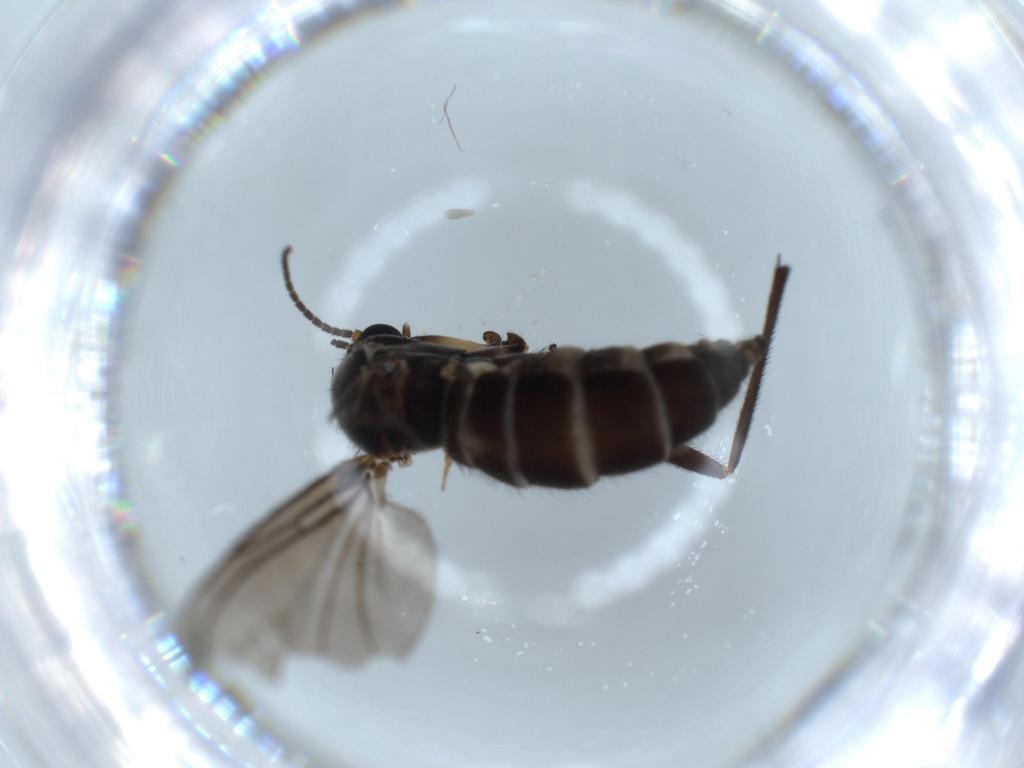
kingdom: Animalia
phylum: Arthropoda
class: Insecta
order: Diptera
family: Sciaridae
